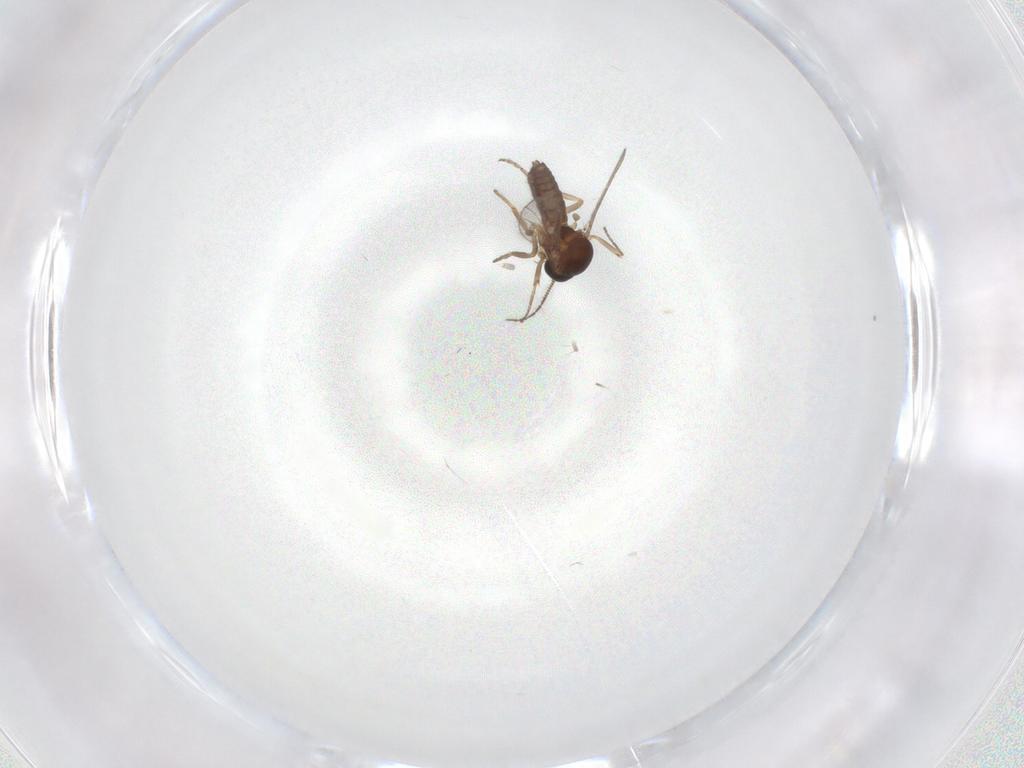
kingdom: Animalia
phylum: Arthropoda
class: Insecta
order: Diptera
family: Ceratopogonidae
